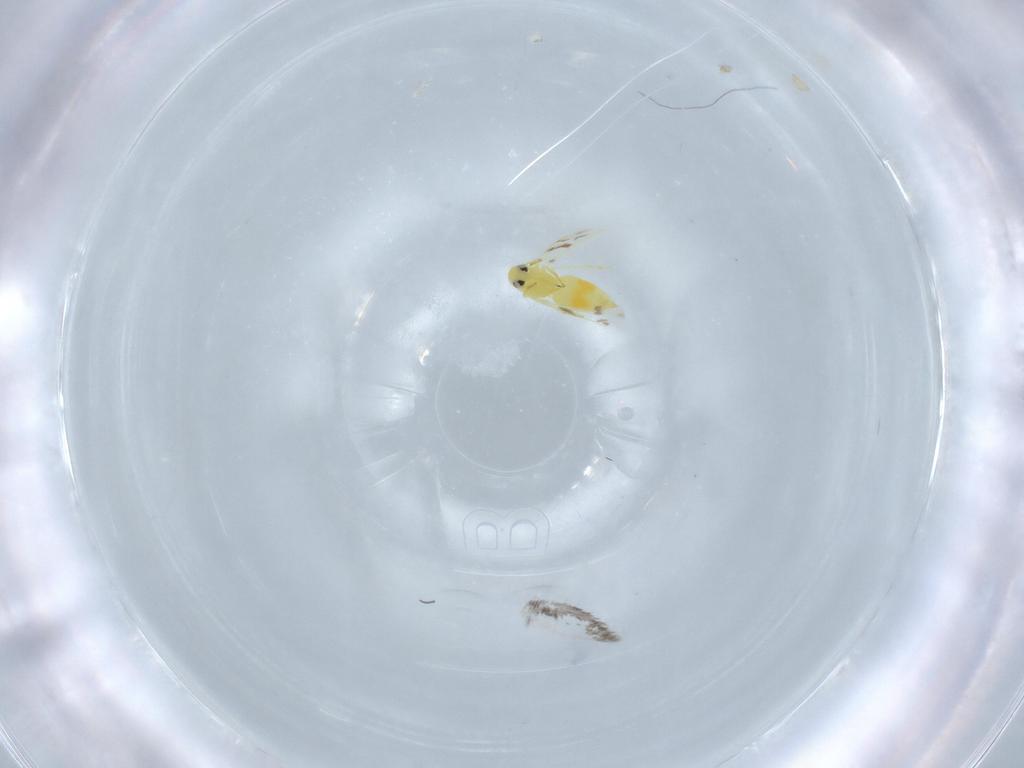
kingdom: Animalia
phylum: Arthropoda
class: Insecta
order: Hemiptera
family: Aleyrodidae
